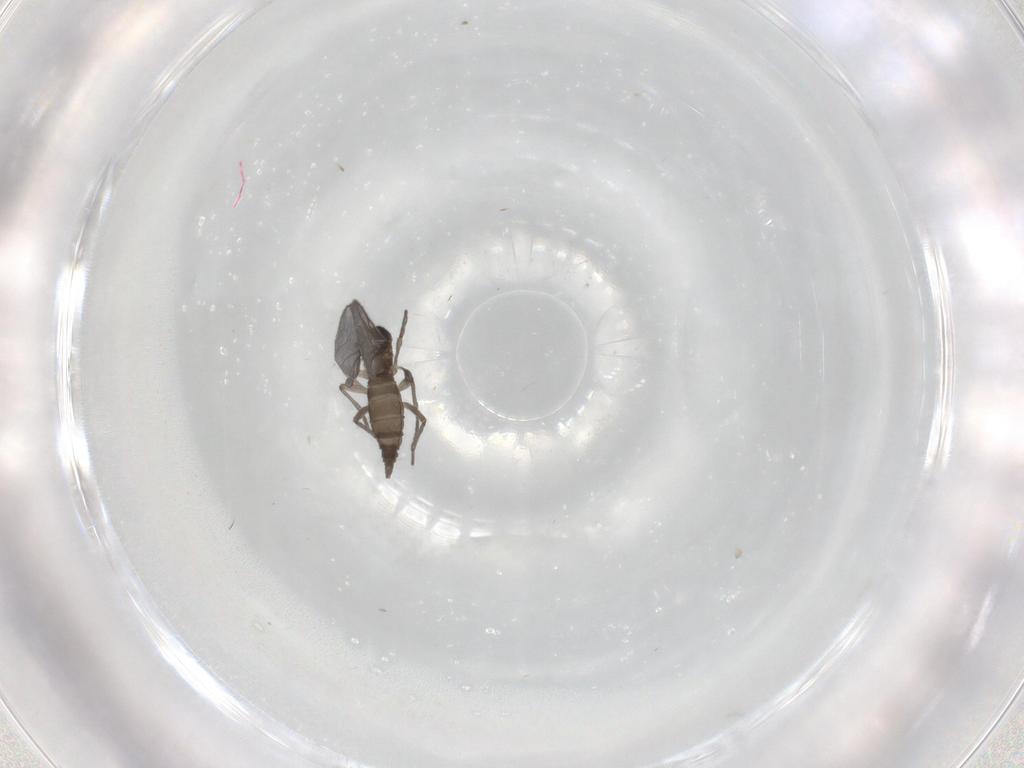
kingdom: Animalia
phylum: Arthropoda
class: Insecta
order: Diptera
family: Sciaridae
